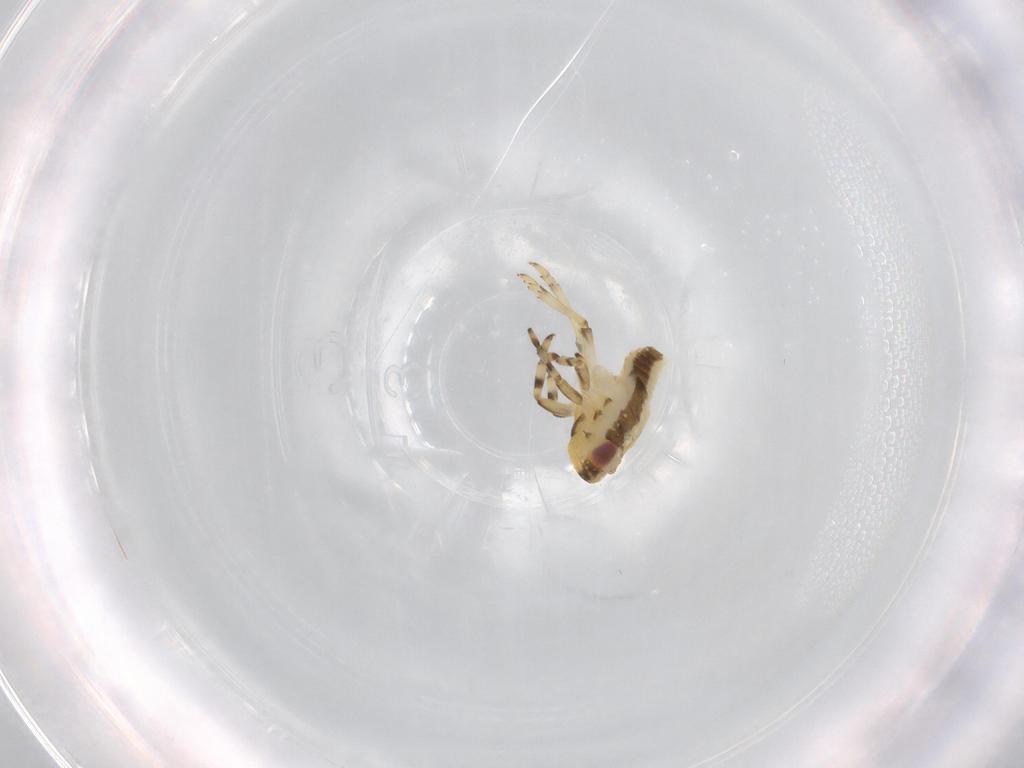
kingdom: Animalia
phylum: Arthropoda
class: Insecta
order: Hemiptera
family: Issidae
